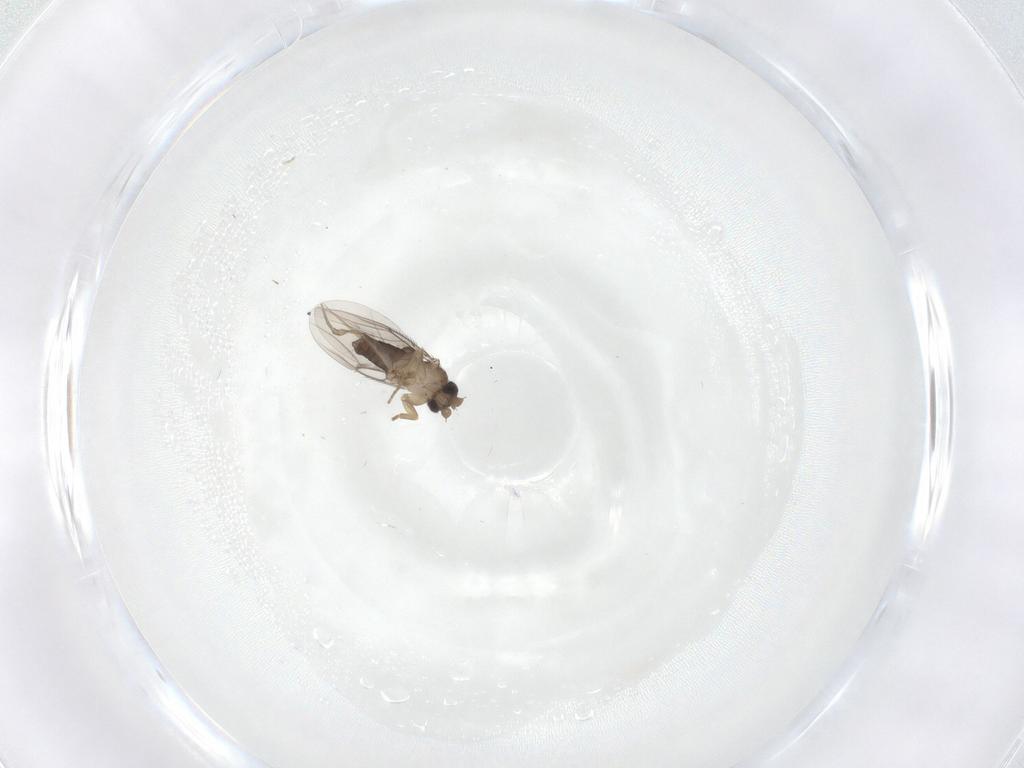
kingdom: Animalia
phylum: Arthropoda
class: Insecta
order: Diptera
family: Phoridae
